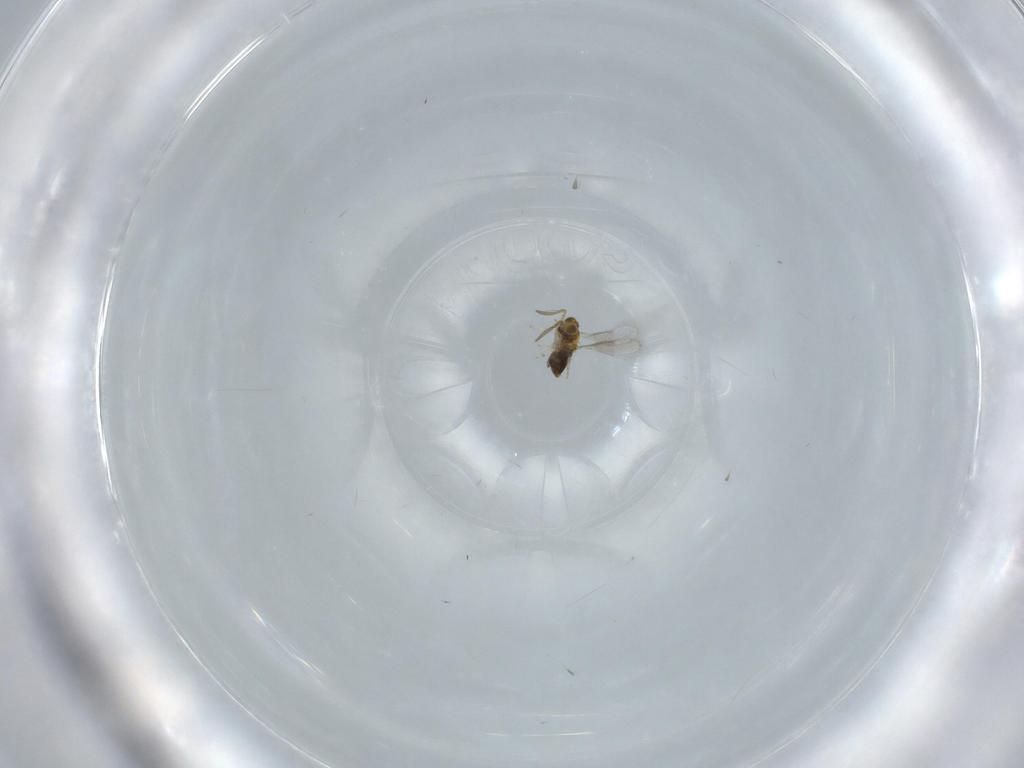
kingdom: Animalia
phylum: Arthropoda
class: Insecta
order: Hymenoptera
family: Aphelinidae
